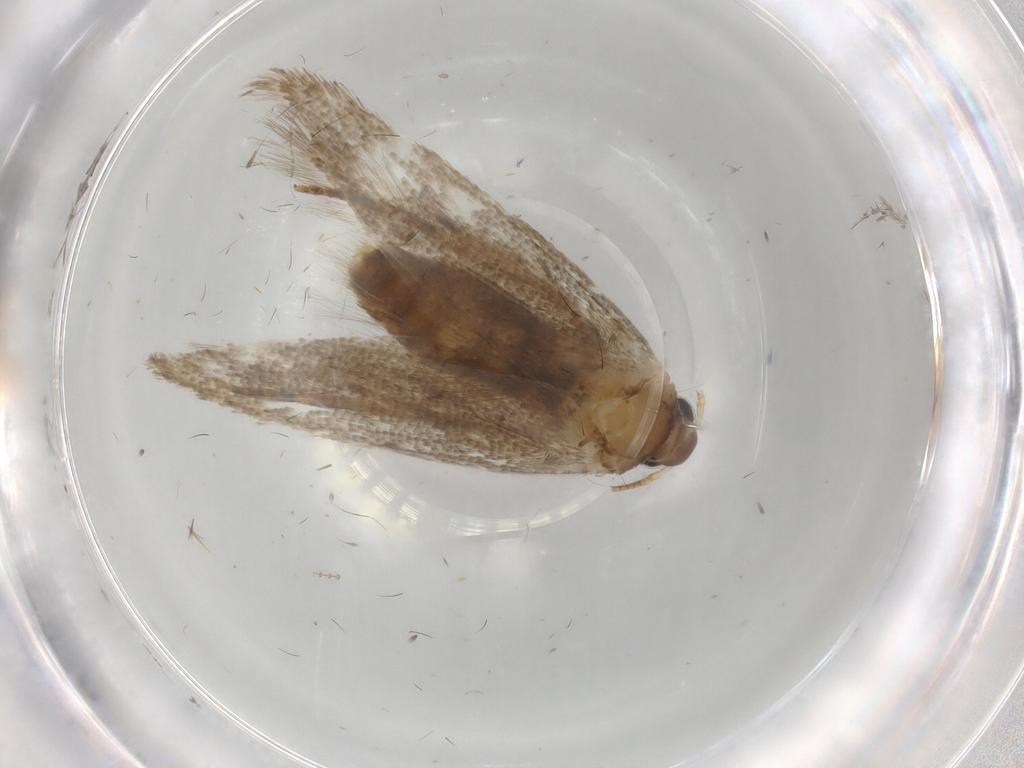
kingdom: Animalia
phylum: Arthropoda
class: Insecta
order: Lepidoptera
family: Oecophoridae
